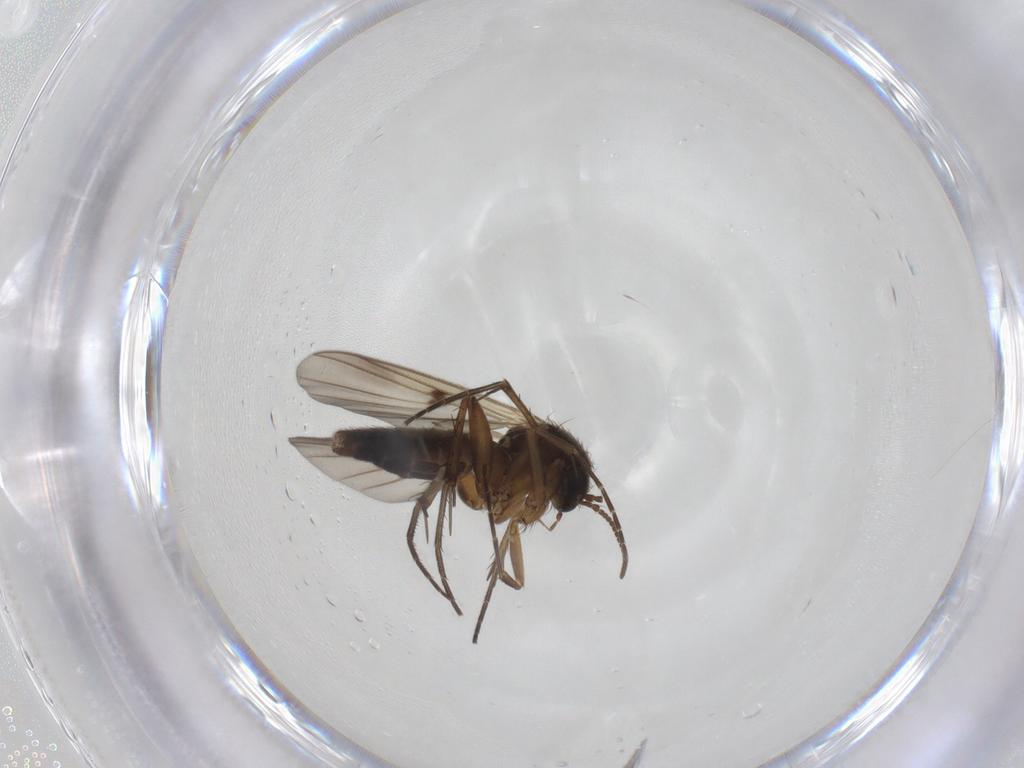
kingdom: Animalia
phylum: Arthropoda
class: Insecta
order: Diptera
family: Mycetophilidae
